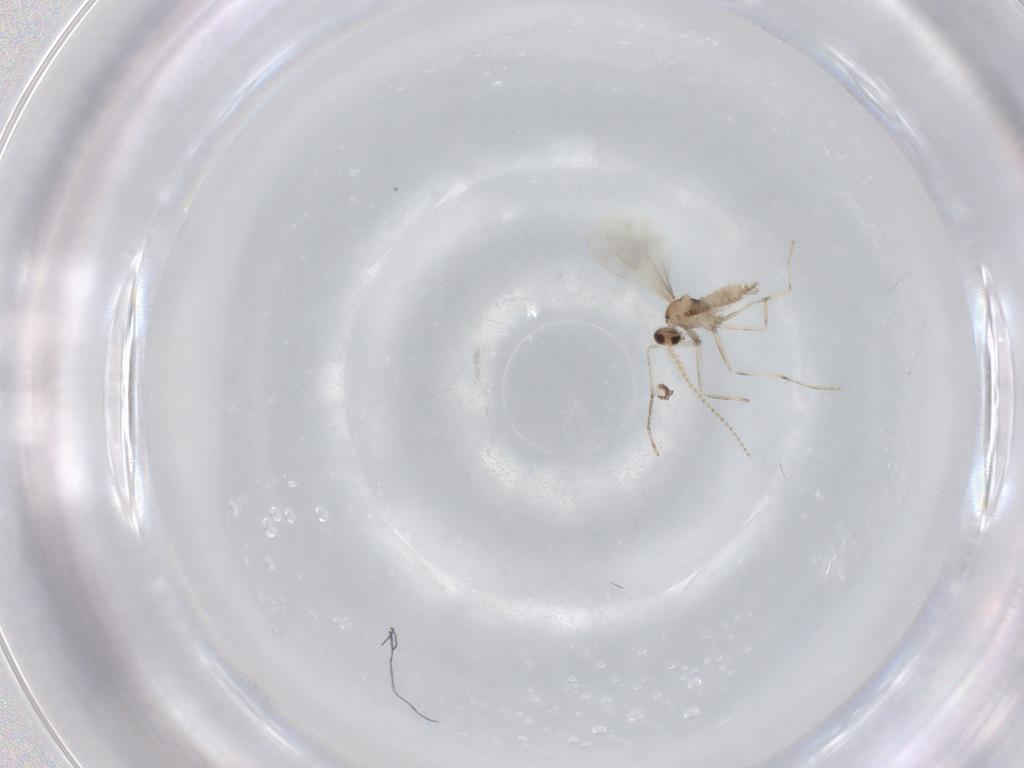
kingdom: Animalia
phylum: Arthropoda
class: Insecta
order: Diptera
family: Cecidomyiidae
